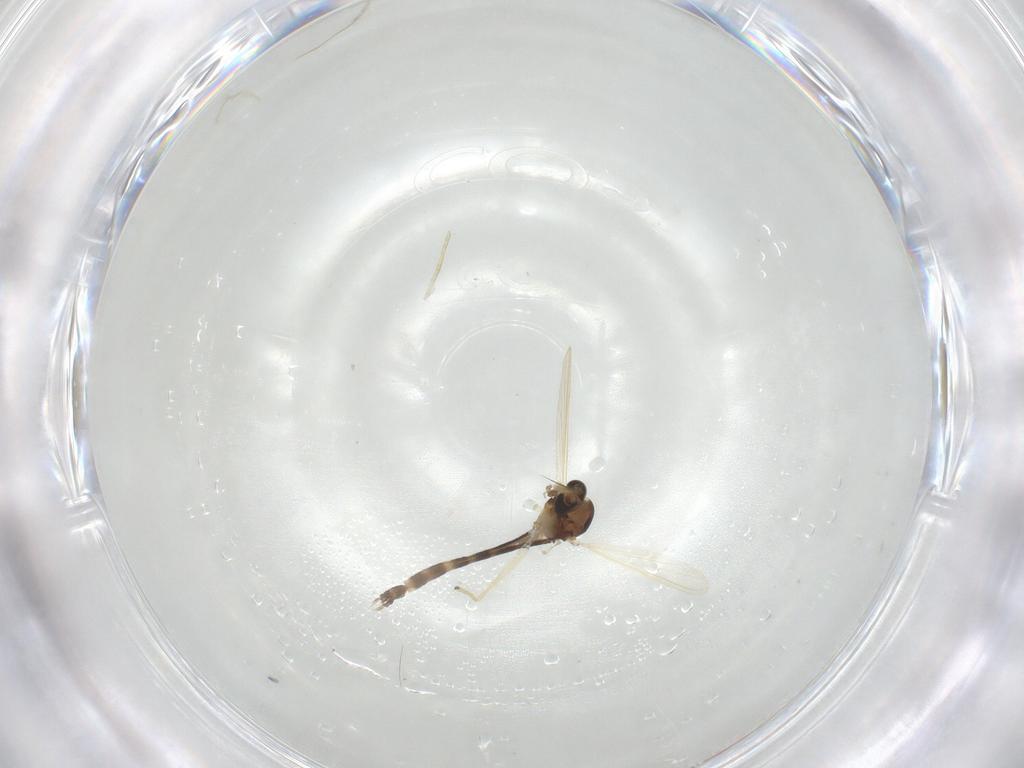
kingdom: Animalia
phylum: Arthropoda
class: Insecta
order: Diptera
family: Chironomidae
